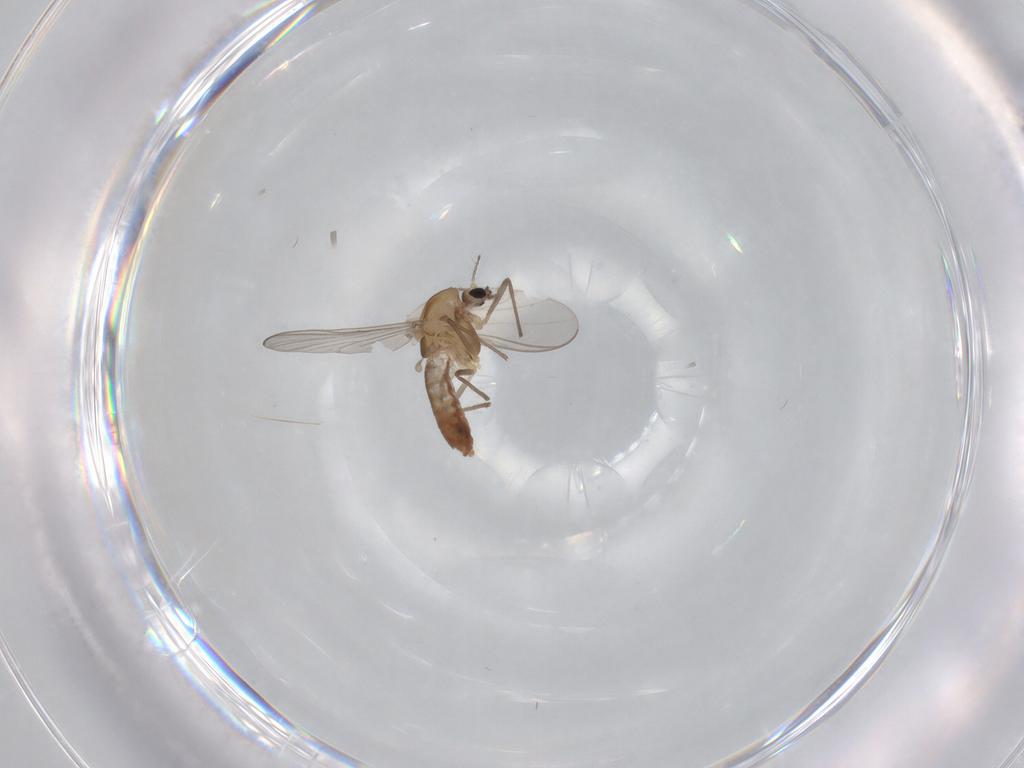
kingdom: Animalia
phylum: Arthropoda
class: Insecta
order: Diptera
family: Chironomidae
